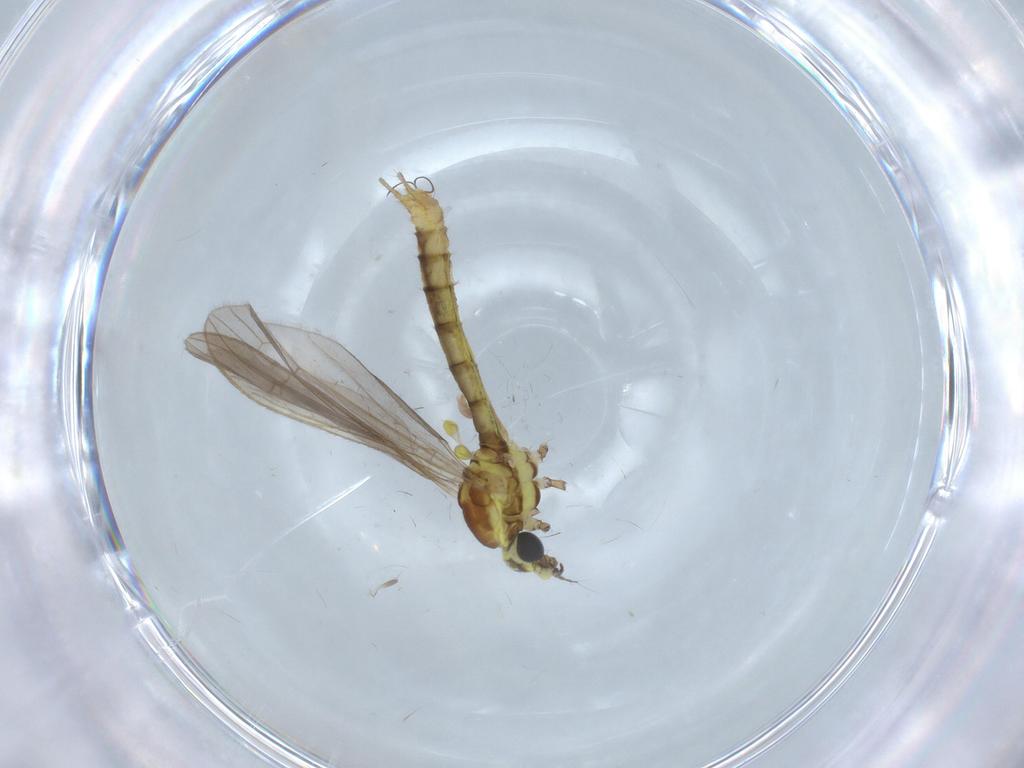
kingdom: Animalia
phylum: Arthropoda
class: Insecta
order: Diptera
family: Limoniidae
